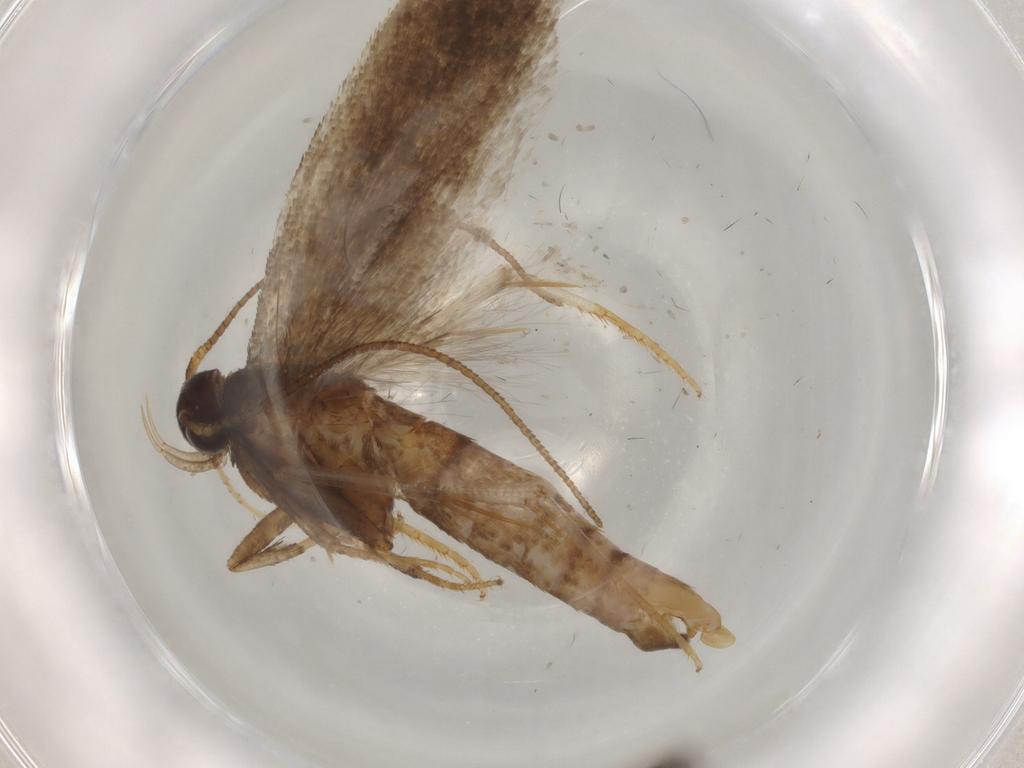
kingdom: Animalia
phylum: Arthropoda
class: Insecta
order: Lepidoptera
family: Gelechiidae
